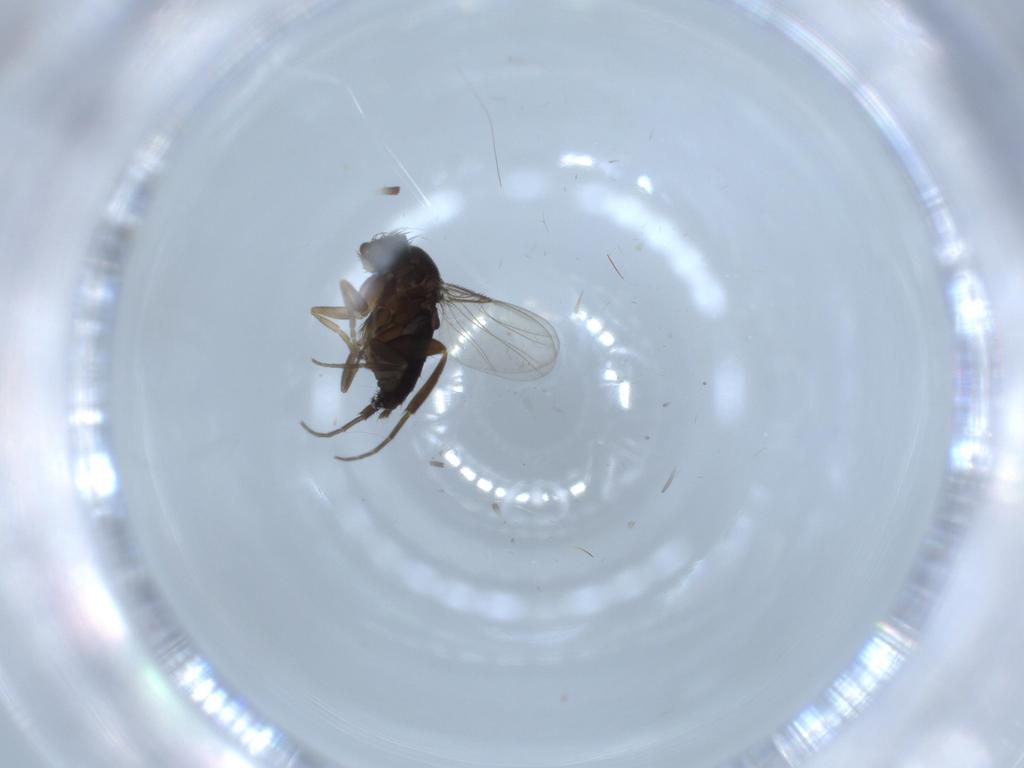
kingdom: Animalia
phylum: Arthropoda
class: Insecta
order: Diptera
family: Phoridae
